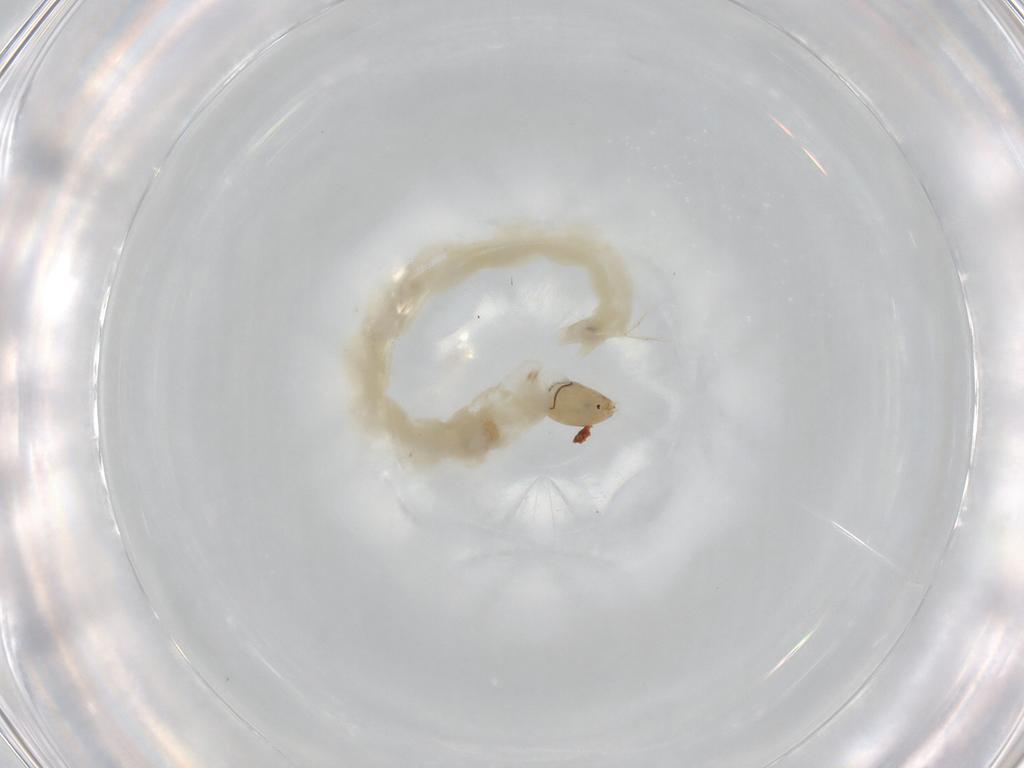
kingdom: Animalia
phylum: Arthropoda
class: Insecta
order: Diptera
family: Chironomidae
